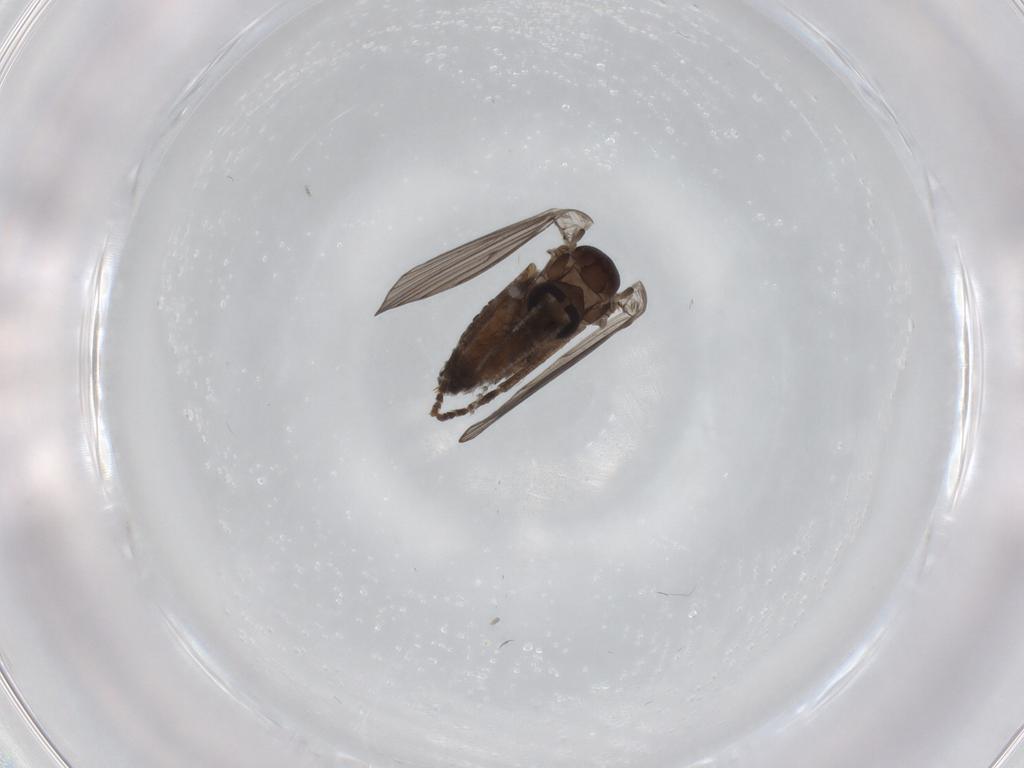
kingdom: Animalia
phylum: Arthropoda
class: Insecta
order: Diptera
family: Psychodidae
